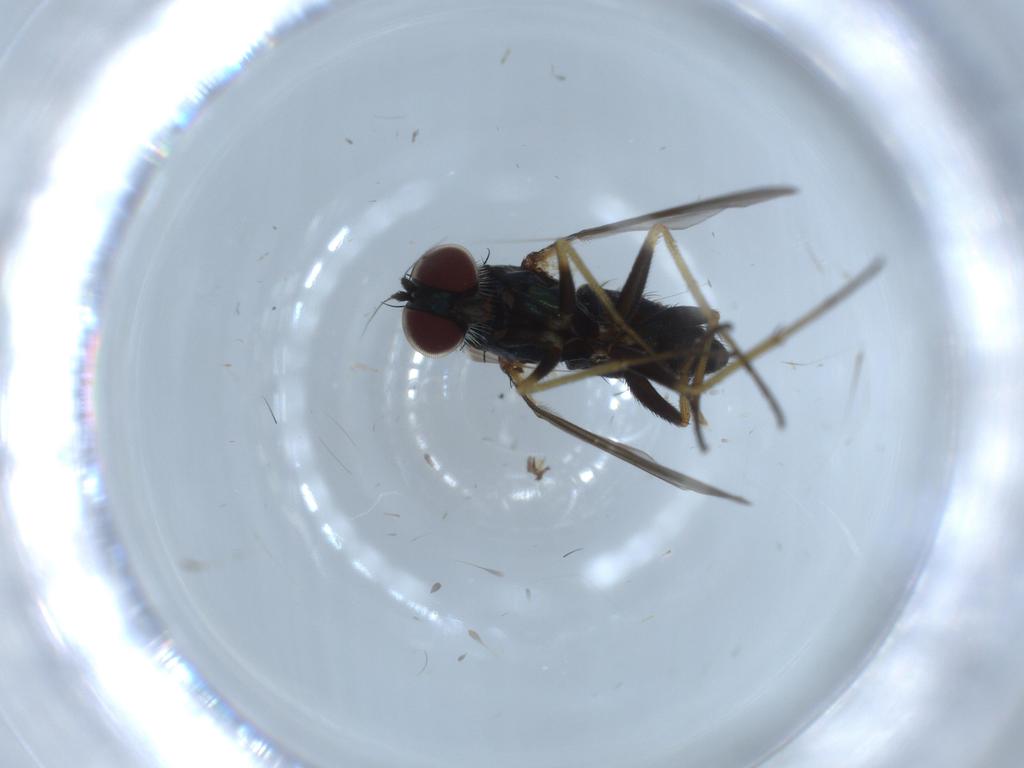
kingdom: Animalia
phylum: Arthropoda
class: Insecta
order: Diptera
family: Dolichopodidae
